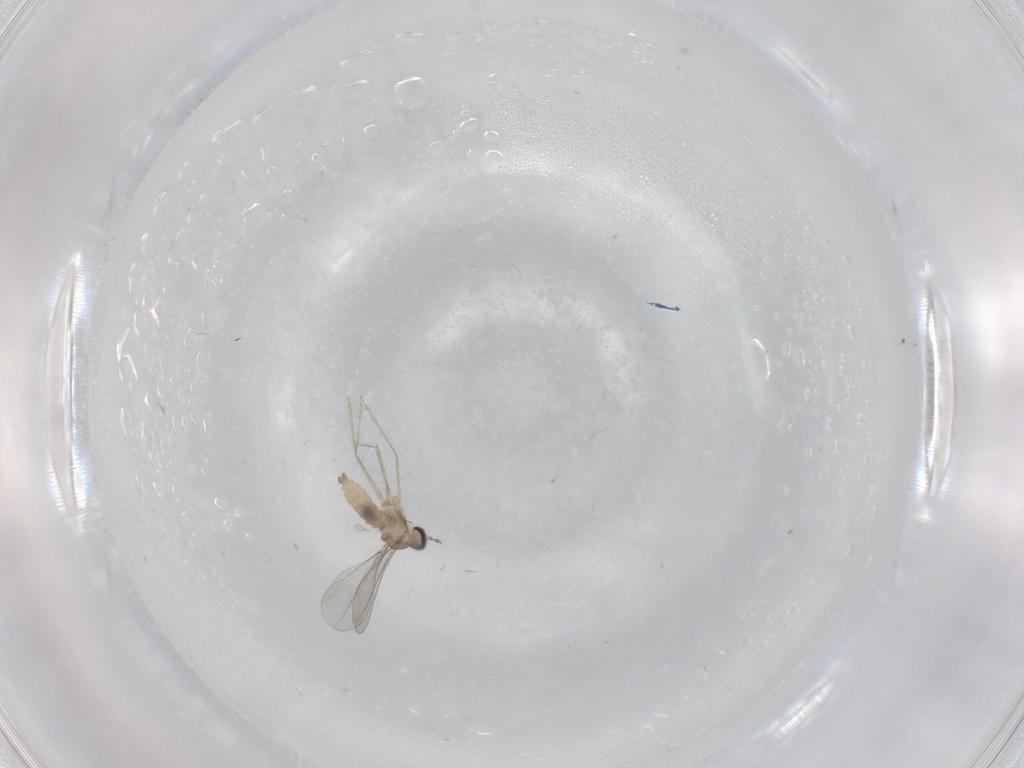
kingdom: Animalia
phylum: Arthropoda
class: Insecta
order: Diptera
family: Cecidomyiidae
